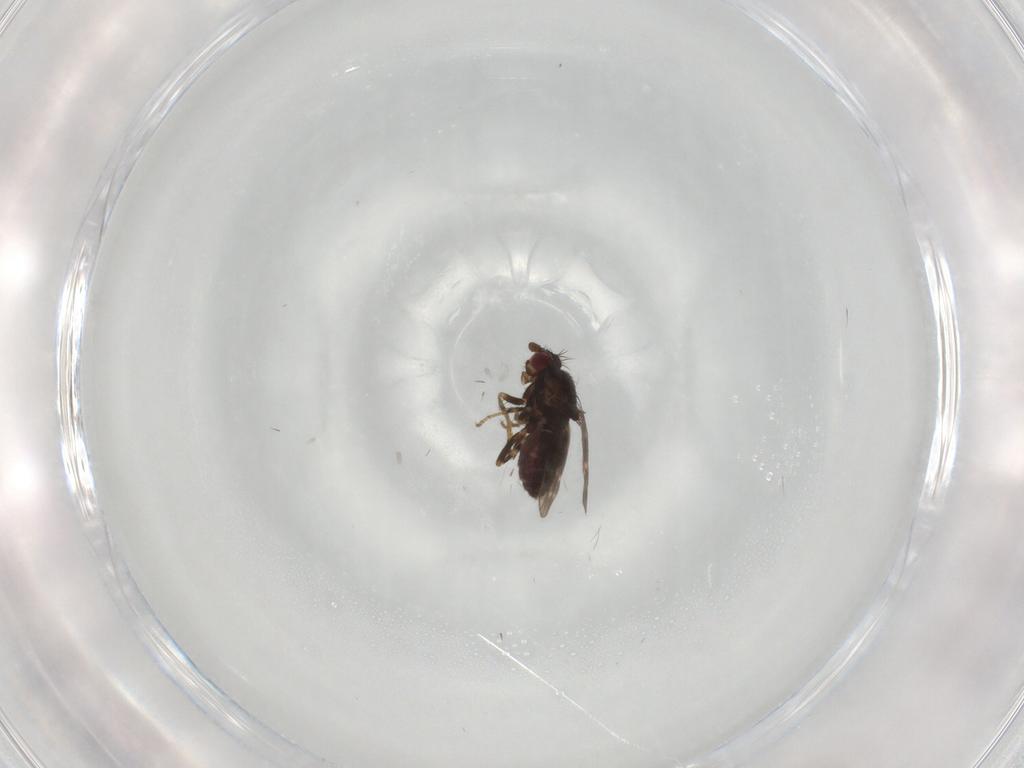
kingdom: Animalia
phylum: Arthropoda
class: Insecta
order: Diptera
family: Sphaeroceridae
